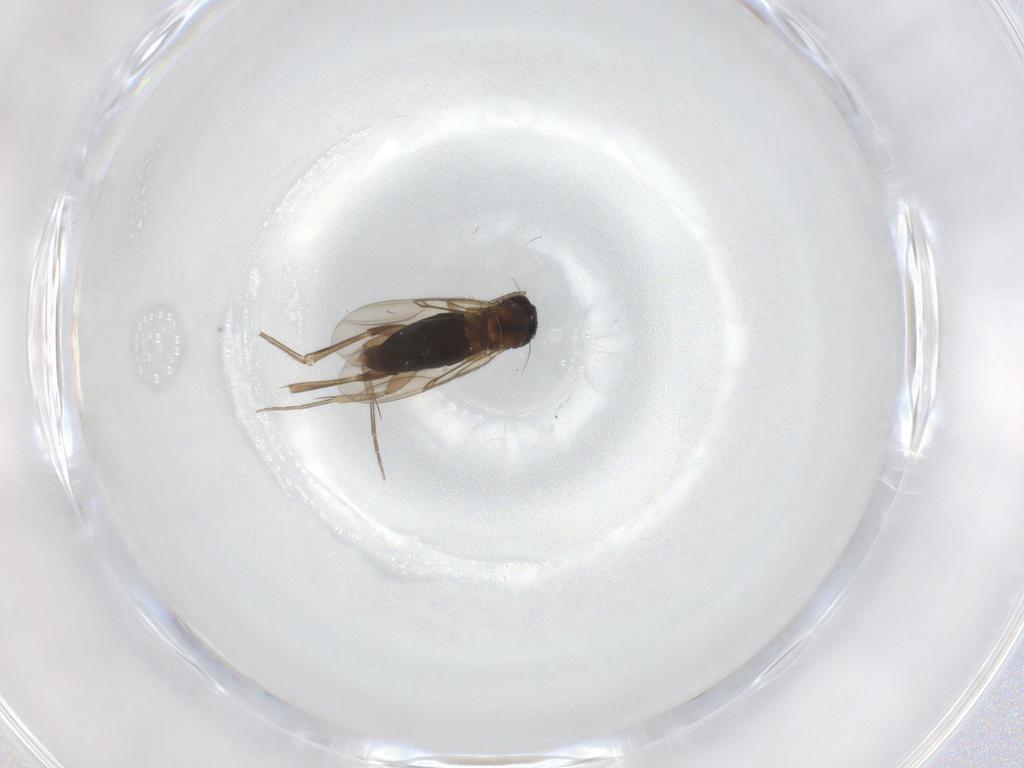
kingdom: Animalia
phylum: Arthropoda
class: Insecta
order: Diptera
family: Phoridae
